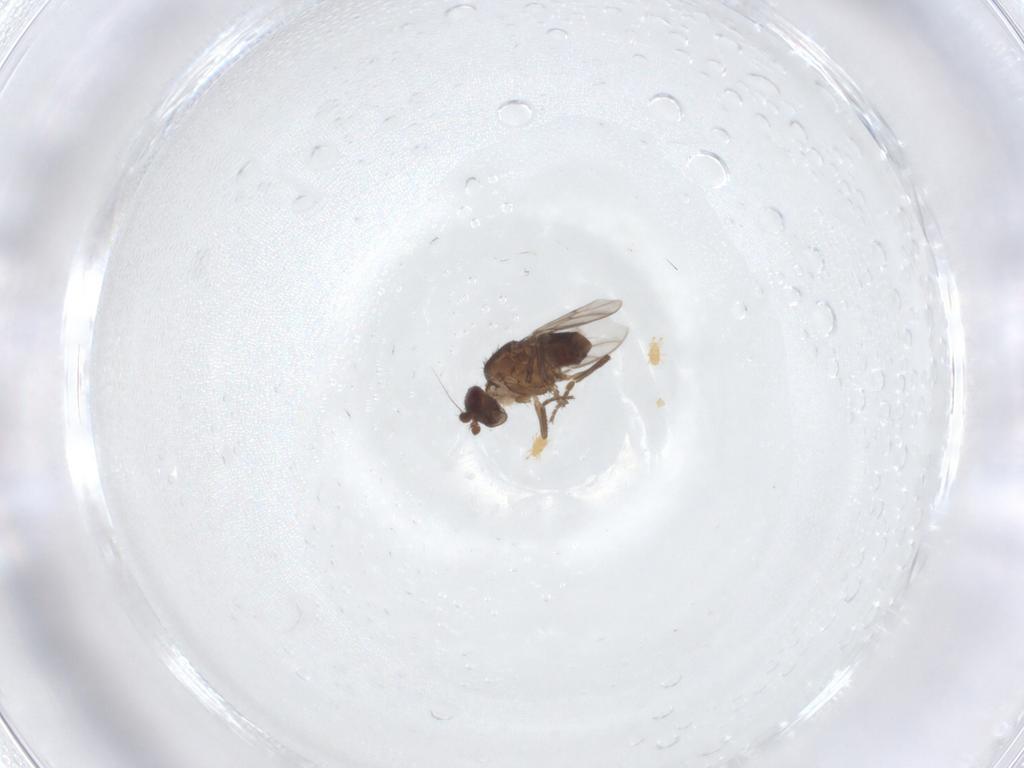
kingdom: Animalia
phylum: Arthropoda
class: Insecta
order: Diptera
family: Sphaeroceridae
